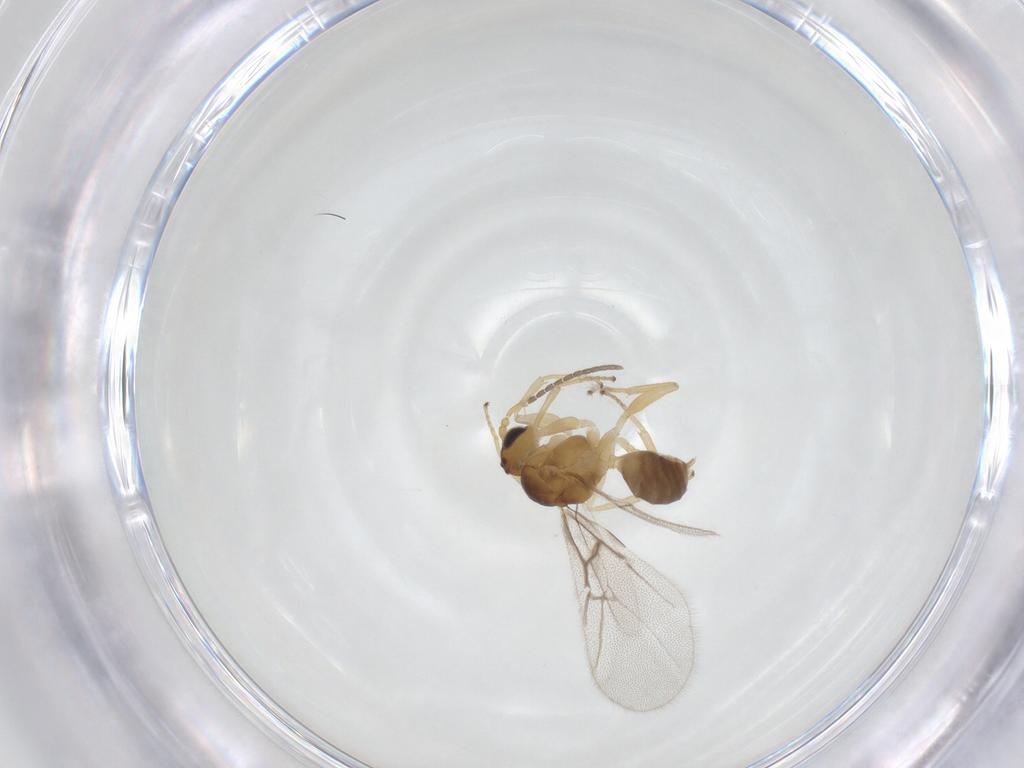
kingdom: Animalia
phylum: Arthropoda
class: Insecta
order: Hymenoptera
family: Cynipidae
